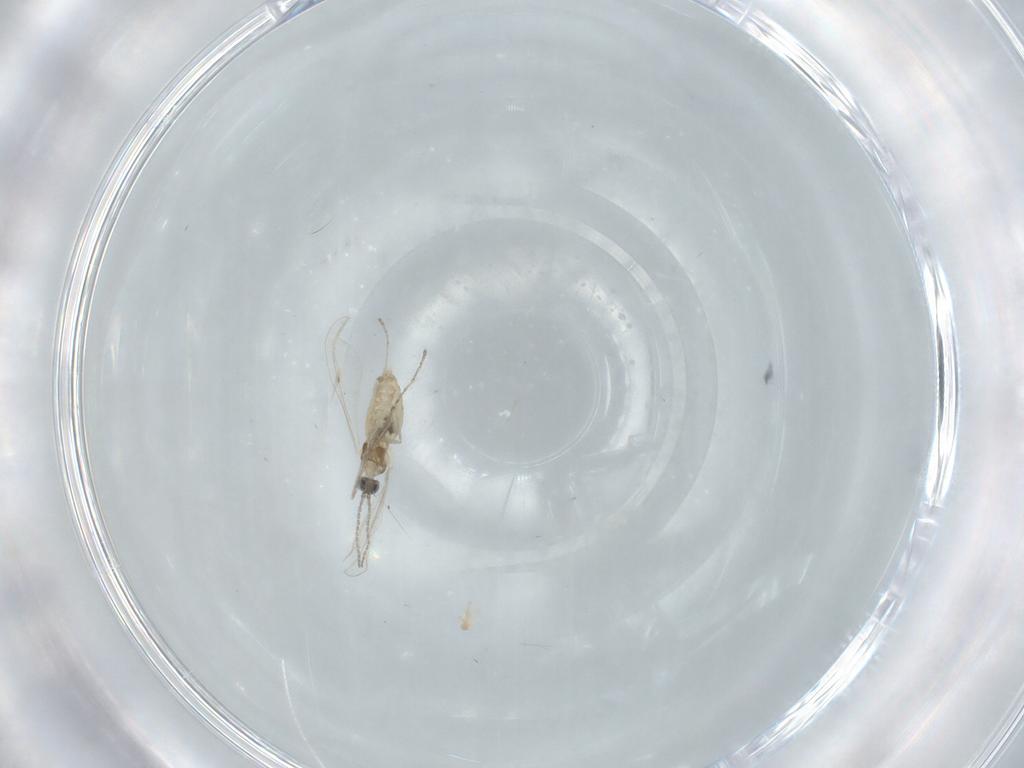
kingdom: Animalia
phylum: Arthropoda
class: Insecta
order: Diptera
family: Cecidomyiidae
